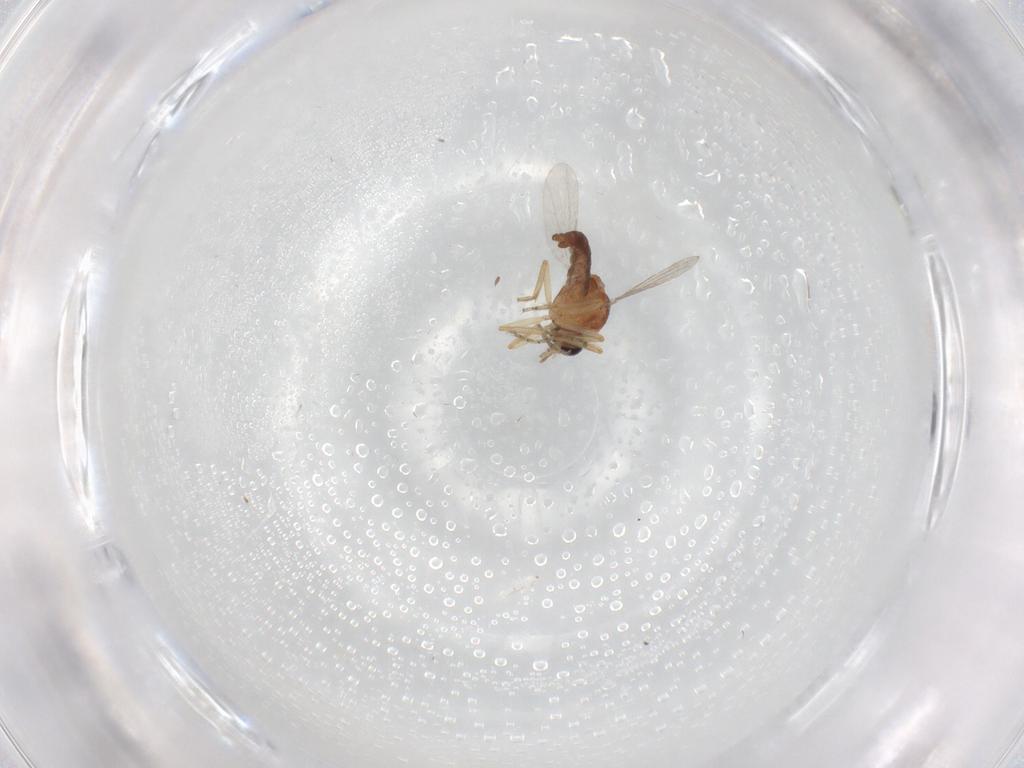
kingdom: Animalia
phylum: Arthropoda
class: Insecta
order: Diptera
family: Ceratopogonidae
